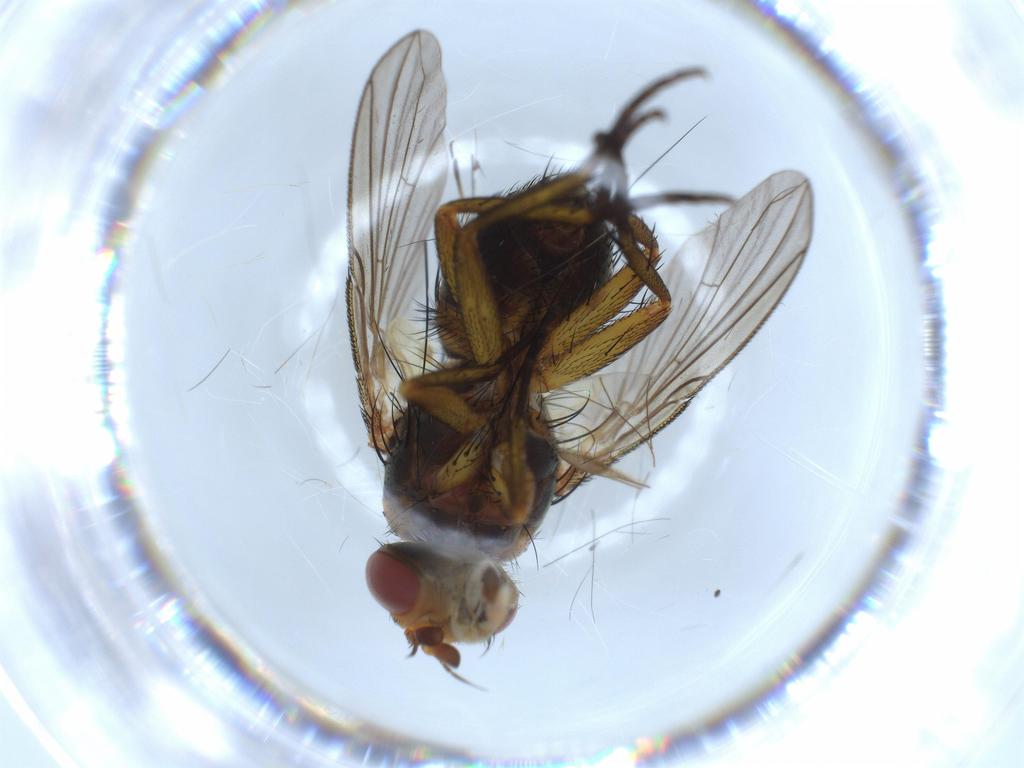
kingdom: Animalia
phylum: Arthropoda
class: Insecta
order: Diptera
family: Tachinidae
